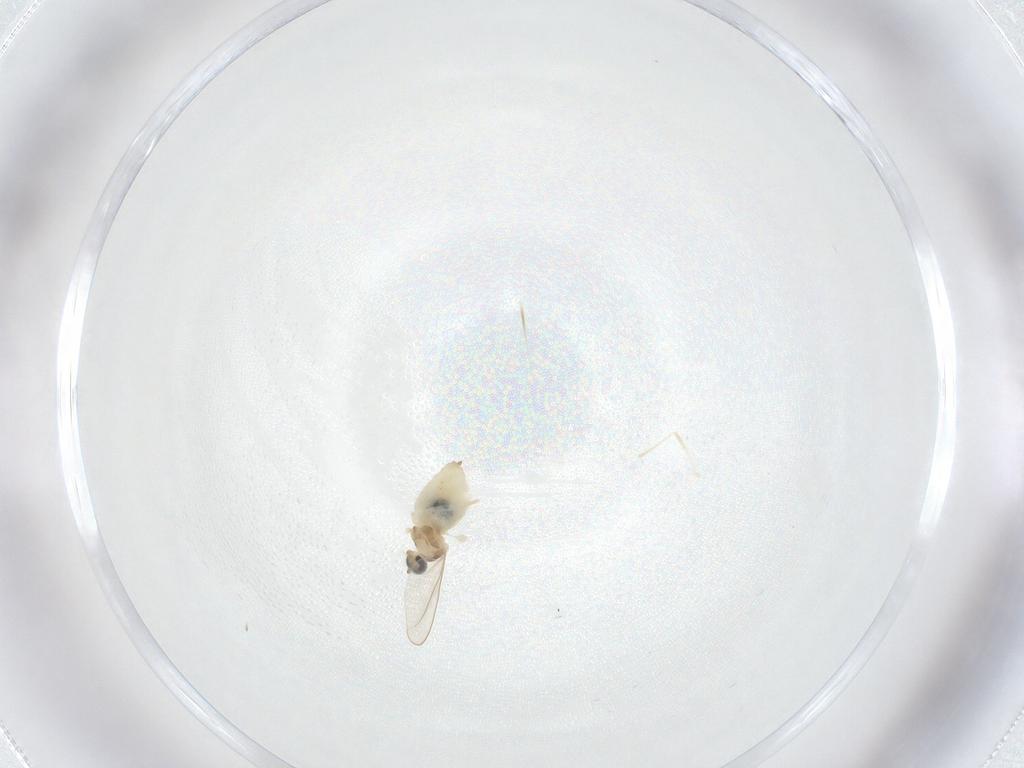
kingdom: Animalia
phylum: Arthropoda
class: Insecta
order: Diptera
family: Cecidomyiidae
